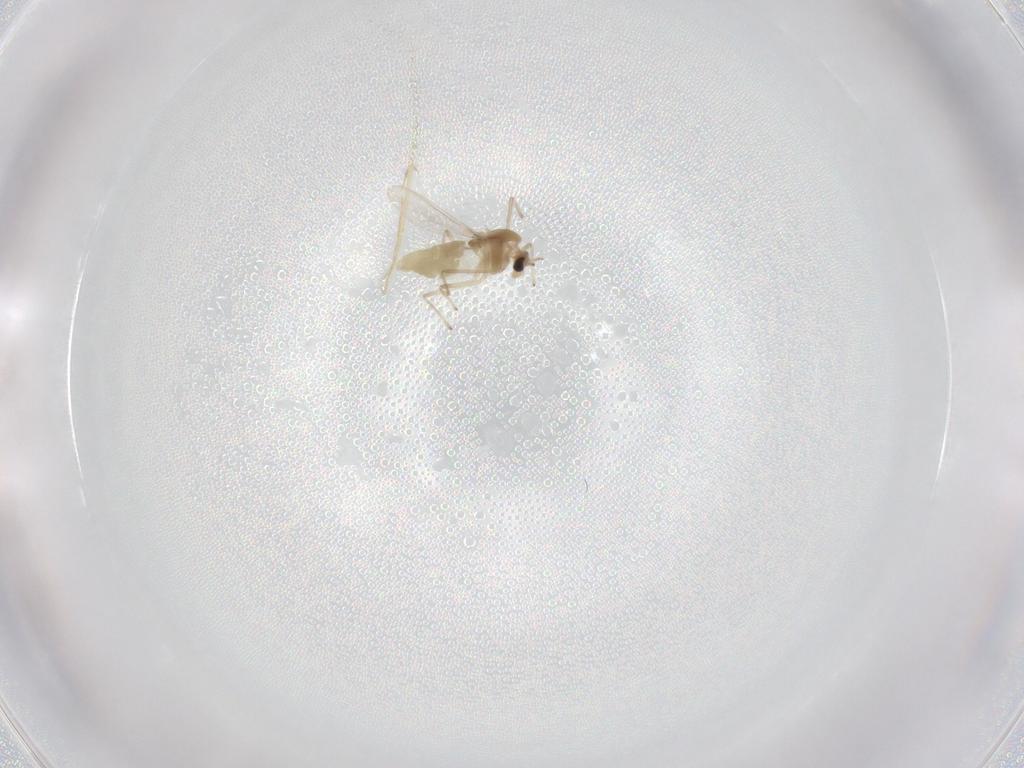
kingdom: Animalia
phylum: Arthropoda
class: Insecta
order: Diptera
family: Chironomidae
